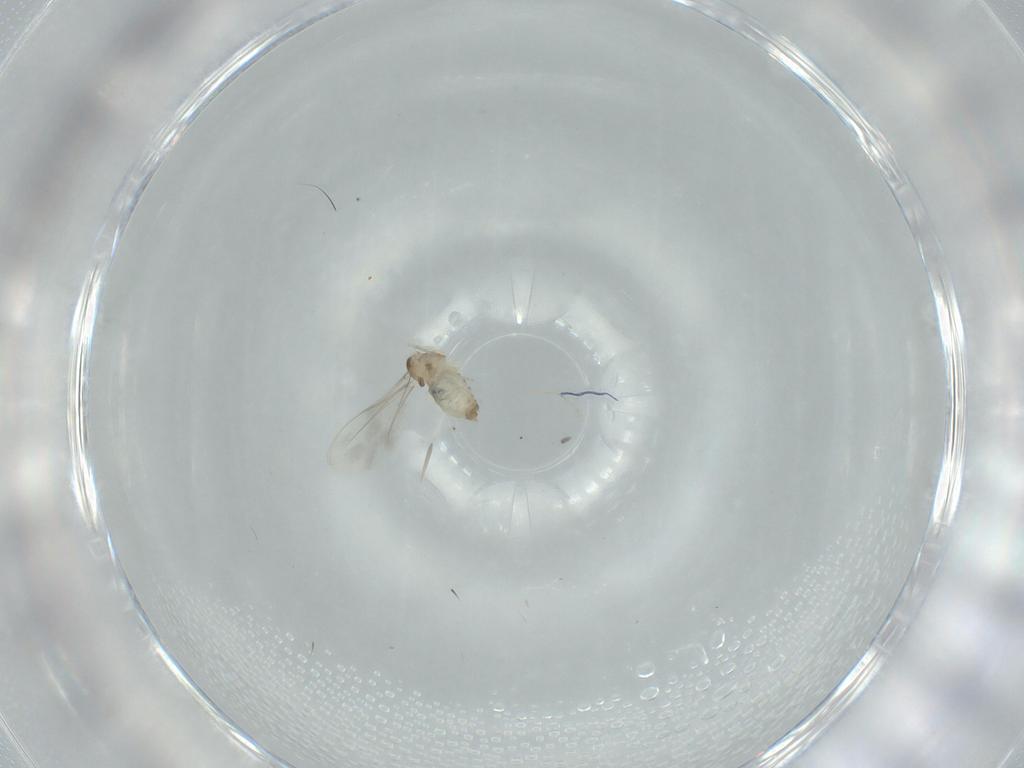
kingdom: Animalia
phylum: Arthropoda
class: Insecta
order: Diptera
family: Cecidomyiidae
